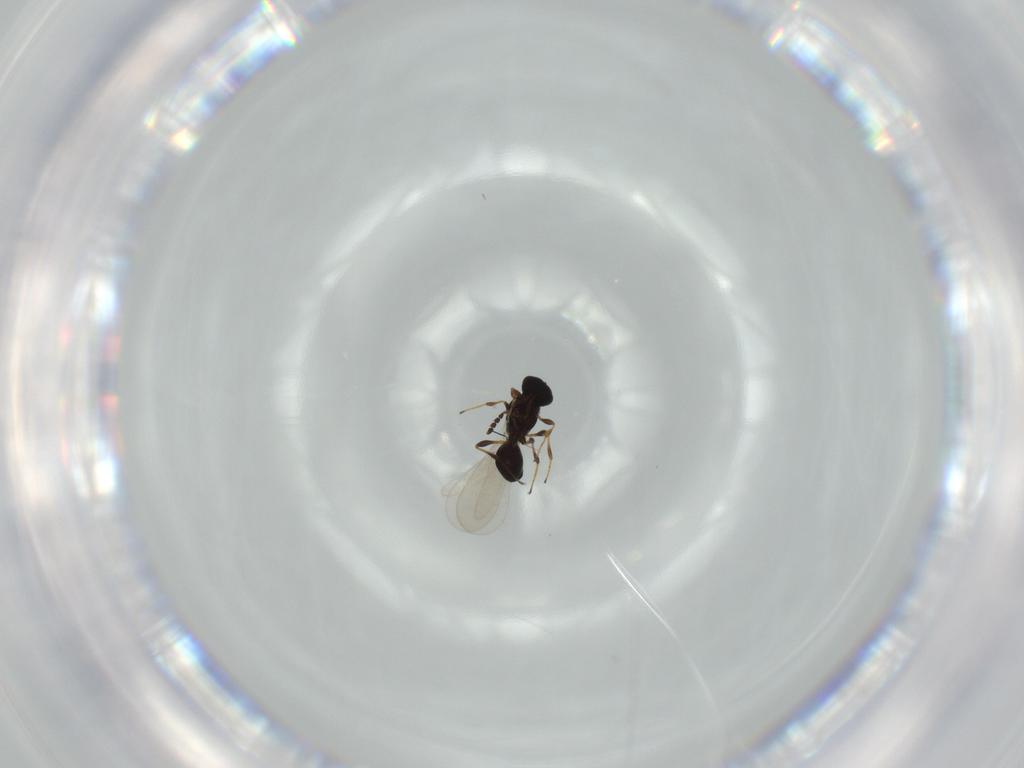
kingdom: Animalia
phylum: Arthropoda
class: Insecta
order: Hymenoptera
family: Platygastridae
